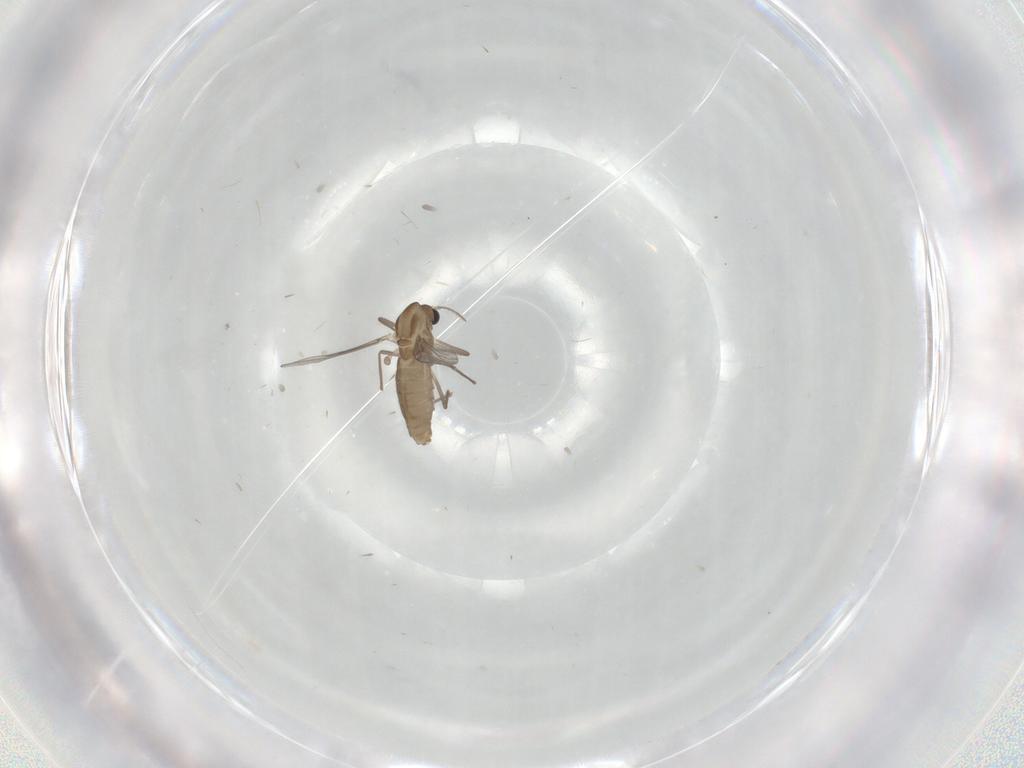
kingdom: Animalia
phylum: Arthropoda
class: Insecta
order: Diptera
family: Chironomidae
